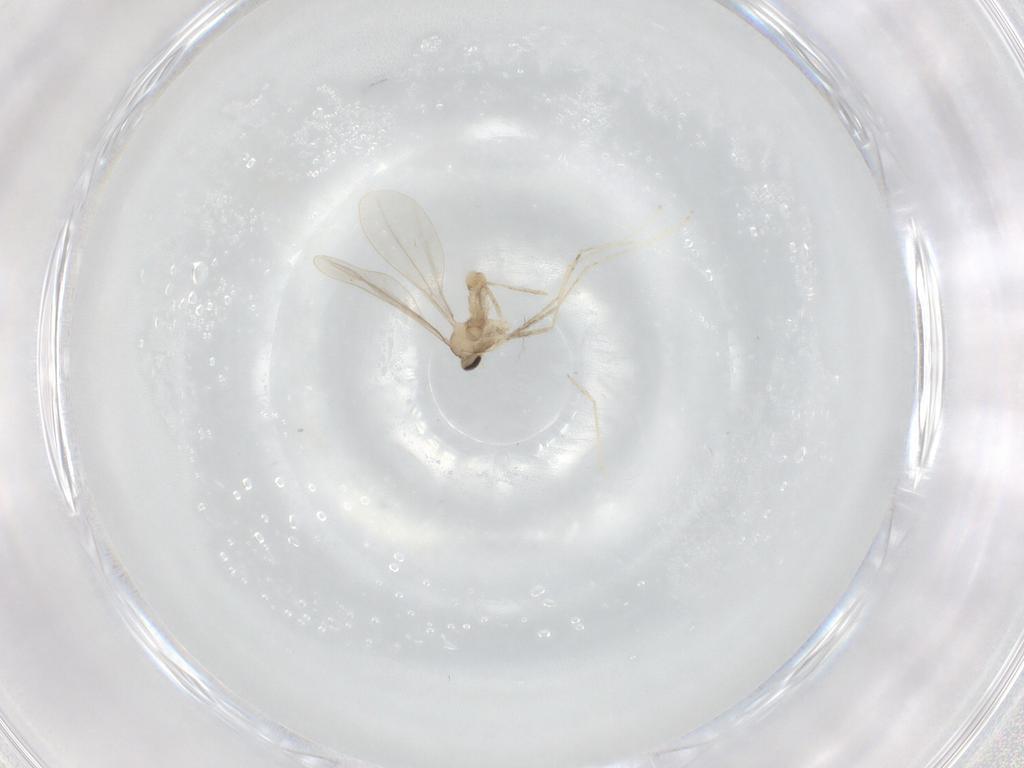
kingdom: Animalia
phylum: Arthropoda
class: Insecta
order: Diptera
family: Cecidomyiidae
